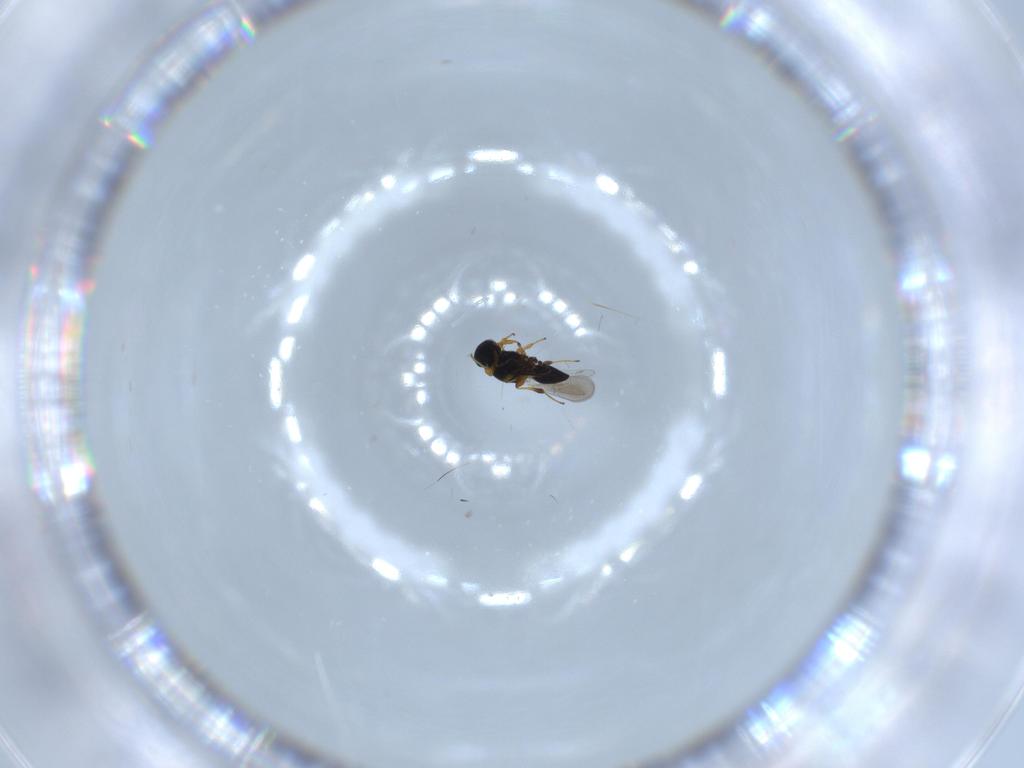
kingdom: Animalia
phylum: Arthropoda
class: Insecta
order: Hymenoptera
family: Platygastridae
